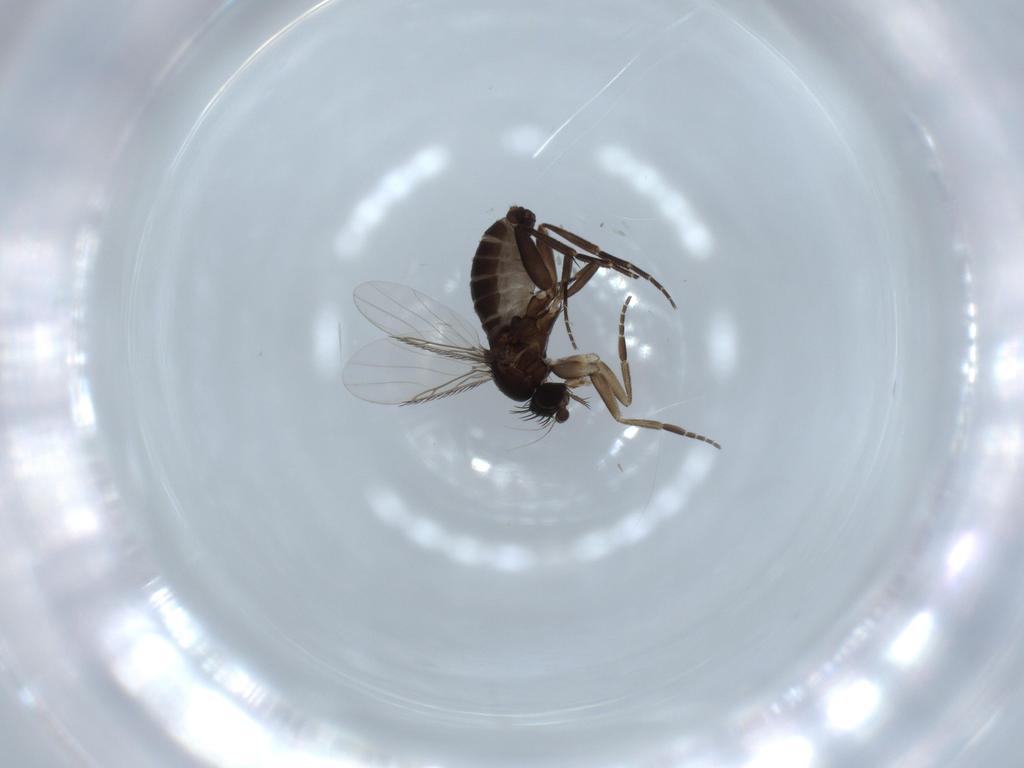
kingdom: Animalia
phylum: Arthropoda
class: Insecta
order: Diptera
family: Phoridae
